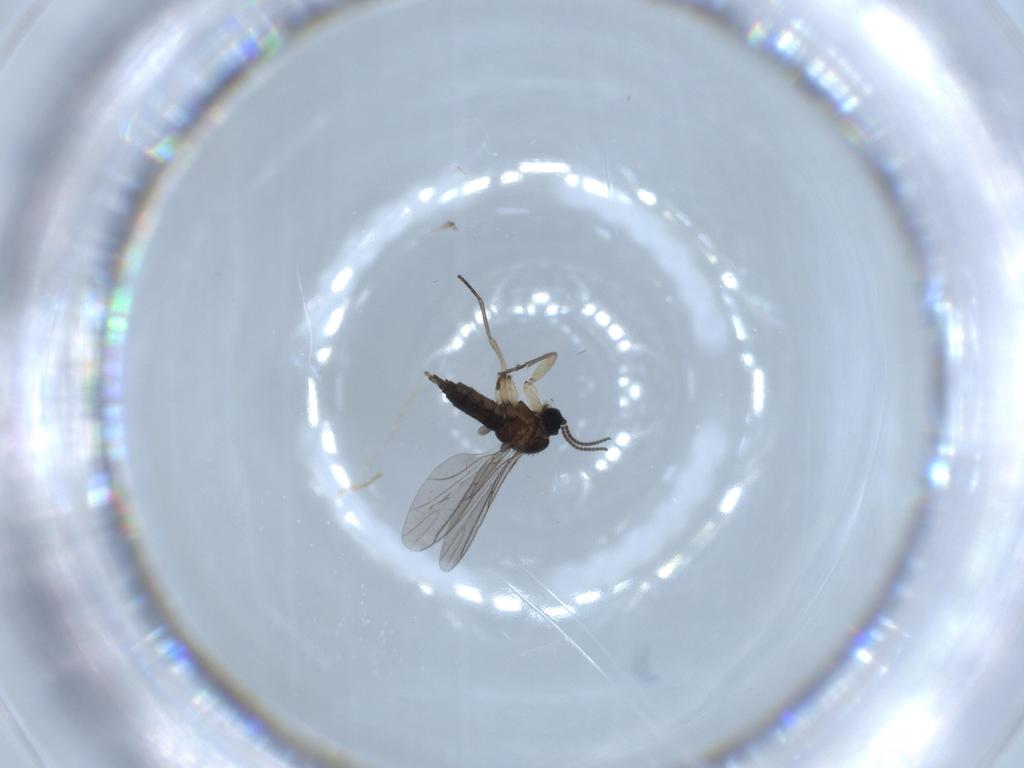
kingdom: Animalia
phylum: Arthropoda
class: Insecta
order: Diptera
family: Sciaridae
